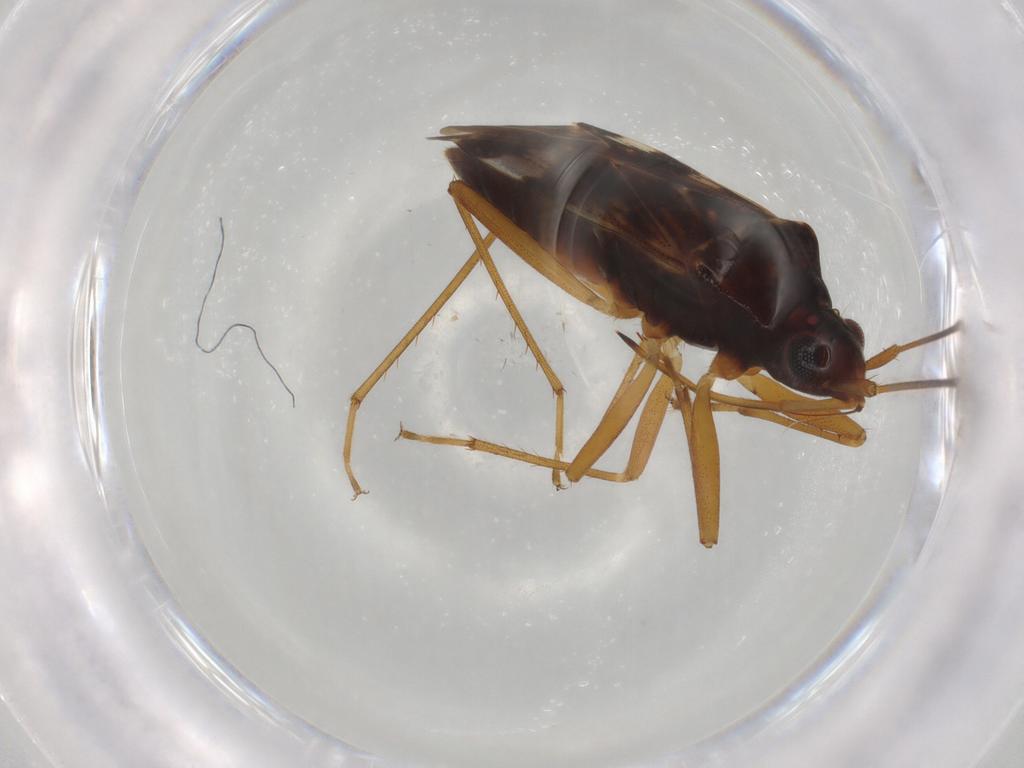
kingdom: Animalia
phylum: Arthropoda
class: Insecta
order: Hemiptera
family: Rhyparochromidae
